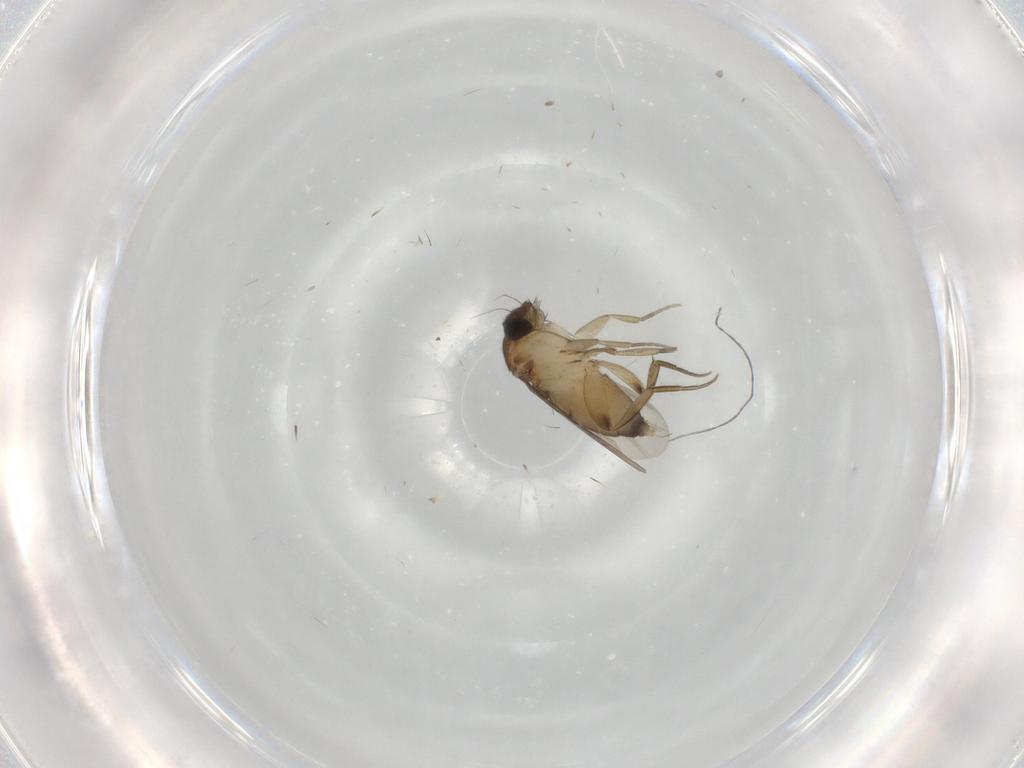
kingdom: Animalia
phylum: Arthropoda
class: Insecta
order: Diptera
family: Phoridae
